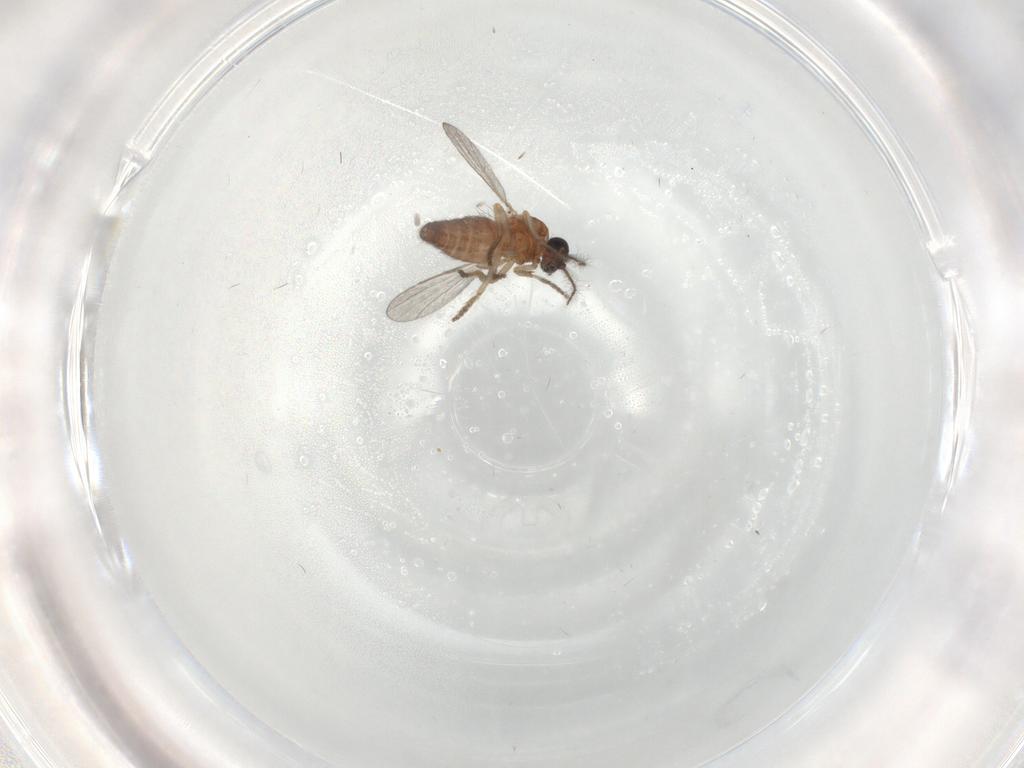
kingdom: Animalia
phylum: Arthropoda
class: Insecta
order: Diptera
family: Ceratopogonidae
